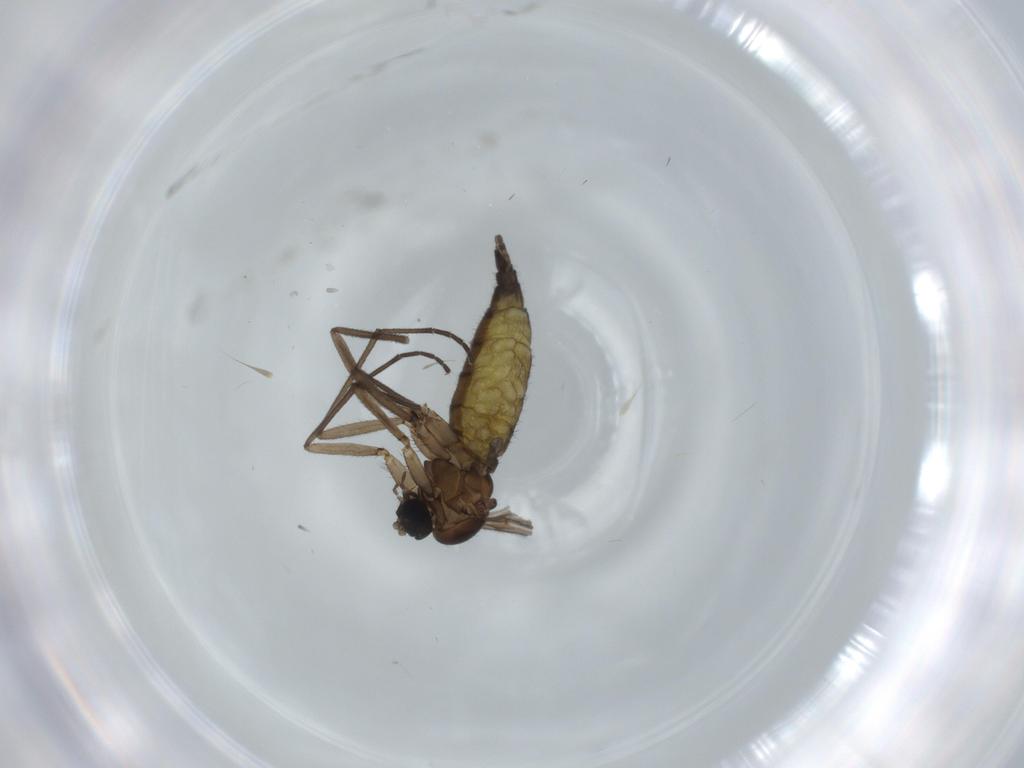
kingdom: Animalia
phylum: Arthropoda
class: Insecta
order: Diptera
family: Sciaridae
